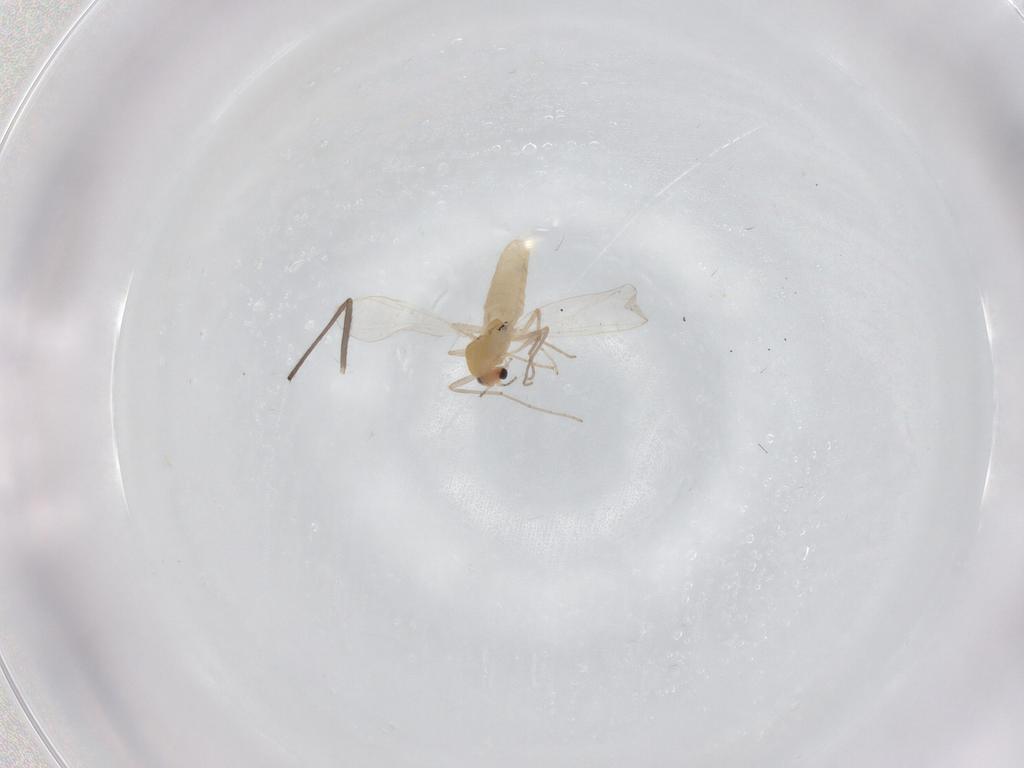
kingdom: Animalia
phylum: Arthropoda
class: Insecta
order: Diptera
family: Chironomidae
